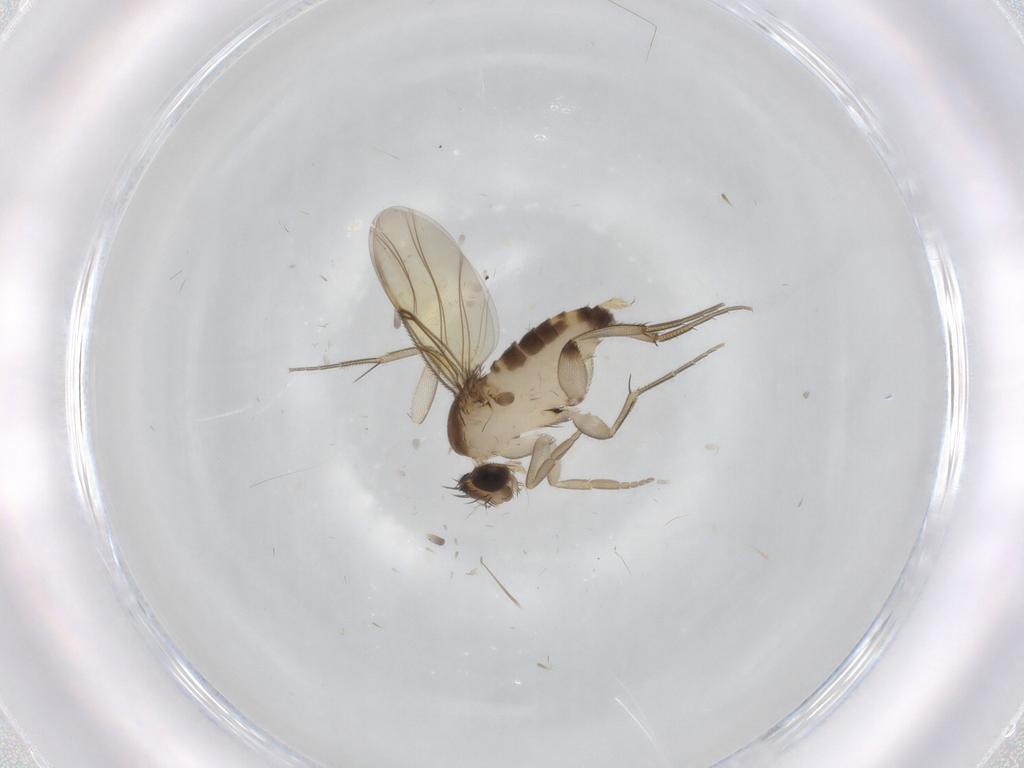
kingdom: Animalia
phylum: Arthropoda
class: Insecta
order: Diptera
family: Phoridae
